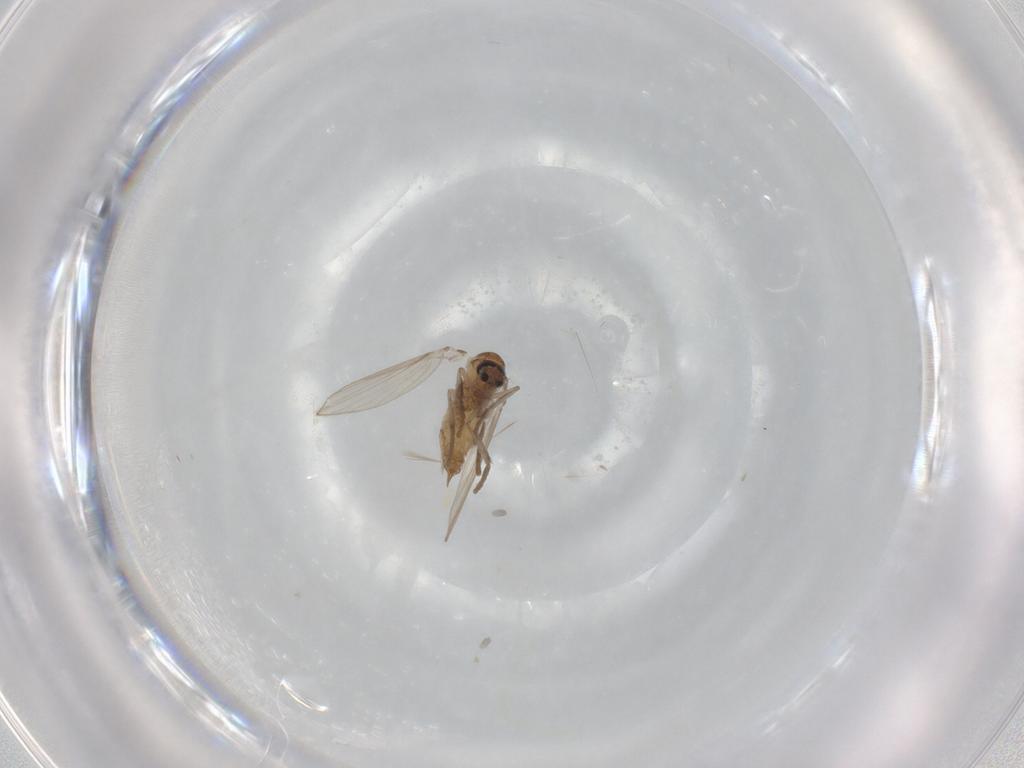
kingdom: Animalia
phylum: Arthropoda
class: Insecta
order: Diptera
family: Psychodidae
